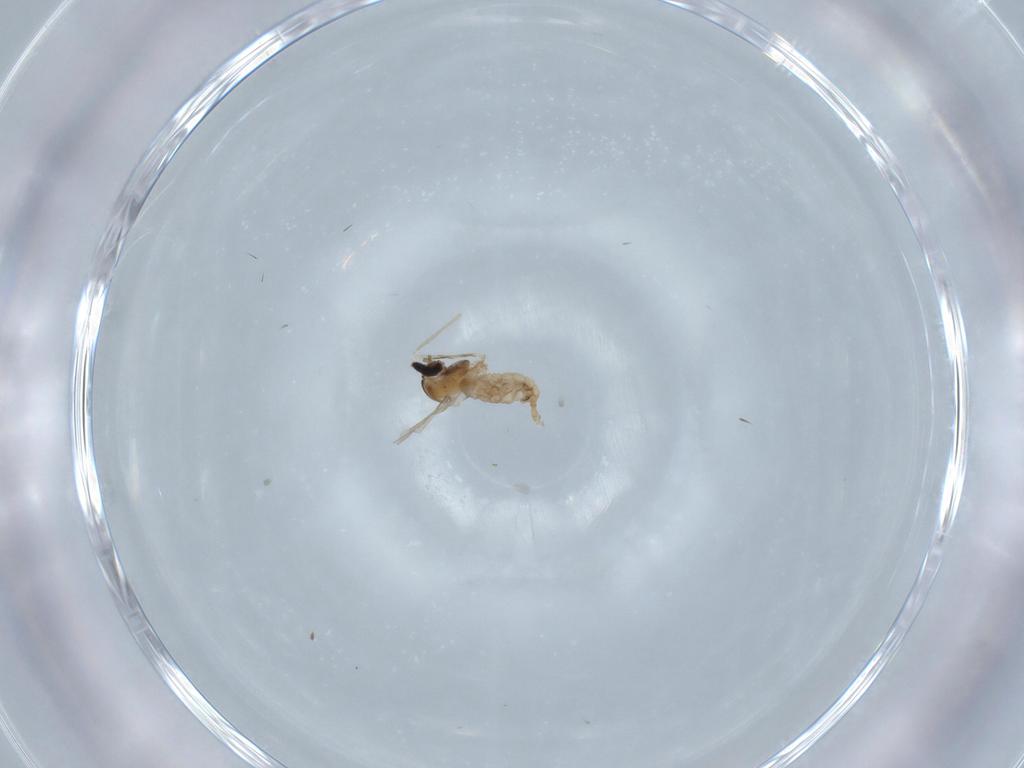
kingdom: Animalia
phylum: Arthropoda
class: Insecta
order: Diptera
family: Cecidomyiidae
